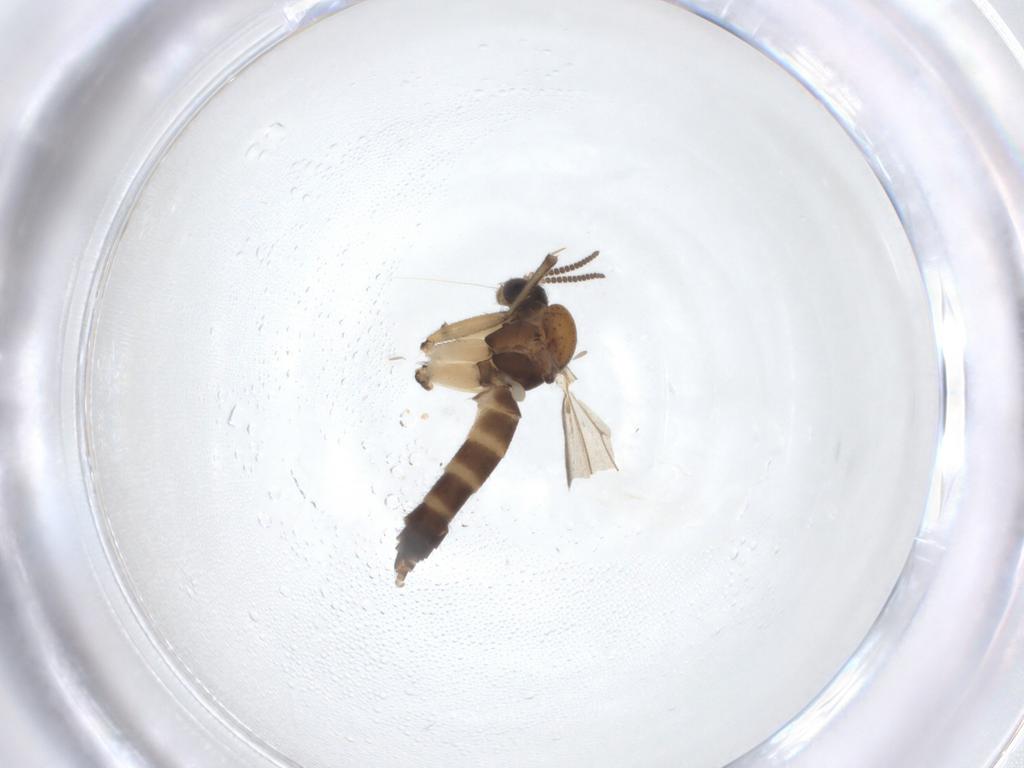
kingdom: Animalia
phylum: Arthropoda
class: Insecta
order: Diptera
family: Mycetophilidae
